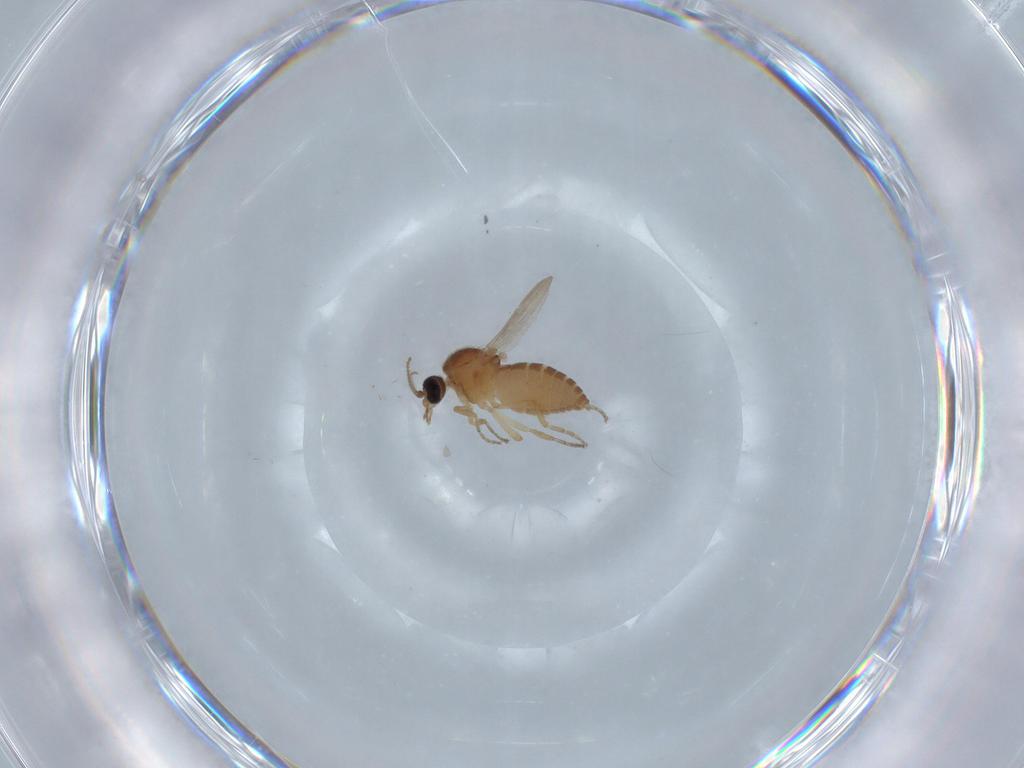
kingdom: Animalia
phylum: Arthropoda
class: Insecta
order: Diptera
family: Ceratopogonidae
